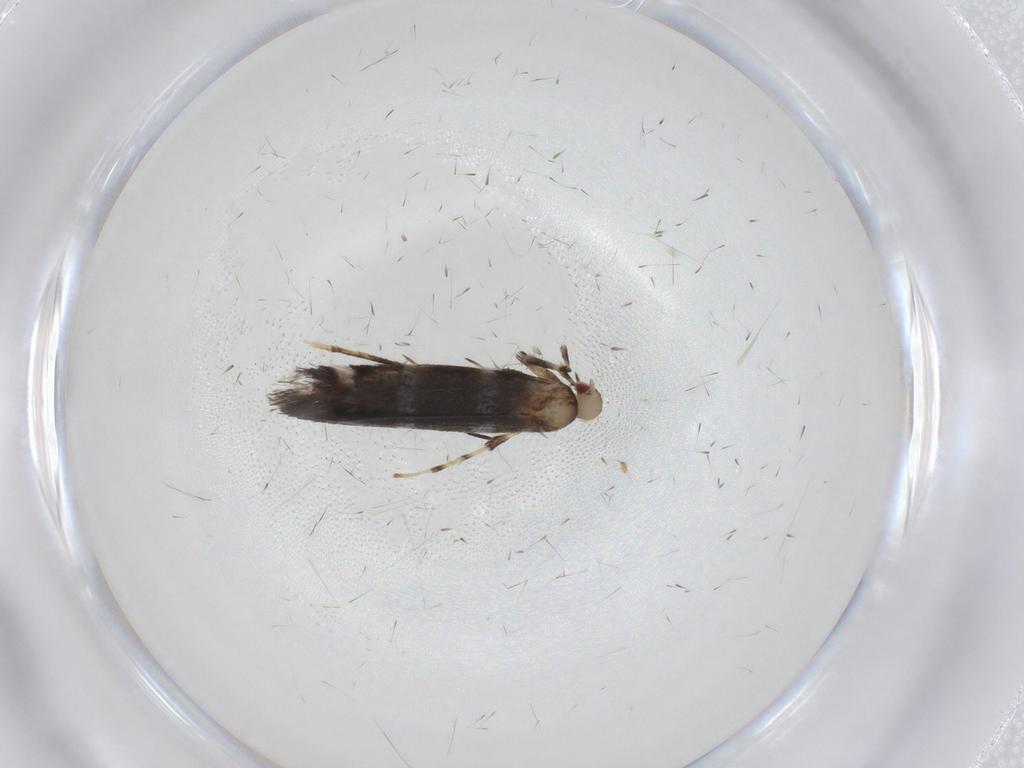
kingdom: Animalia
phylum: Arthropoda
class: Insecta
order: Lepidoptera
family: Gracillariidae
